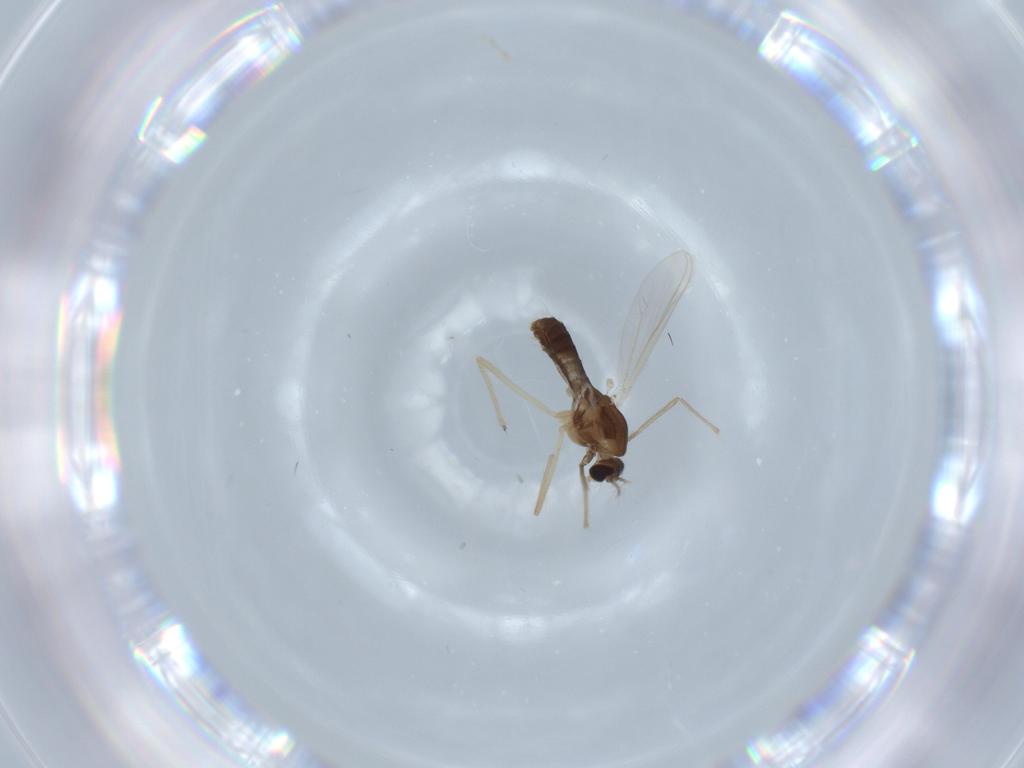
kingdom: Animalia
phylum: Arthropoda
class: Insecta
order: Diptera
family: Chironomidae
